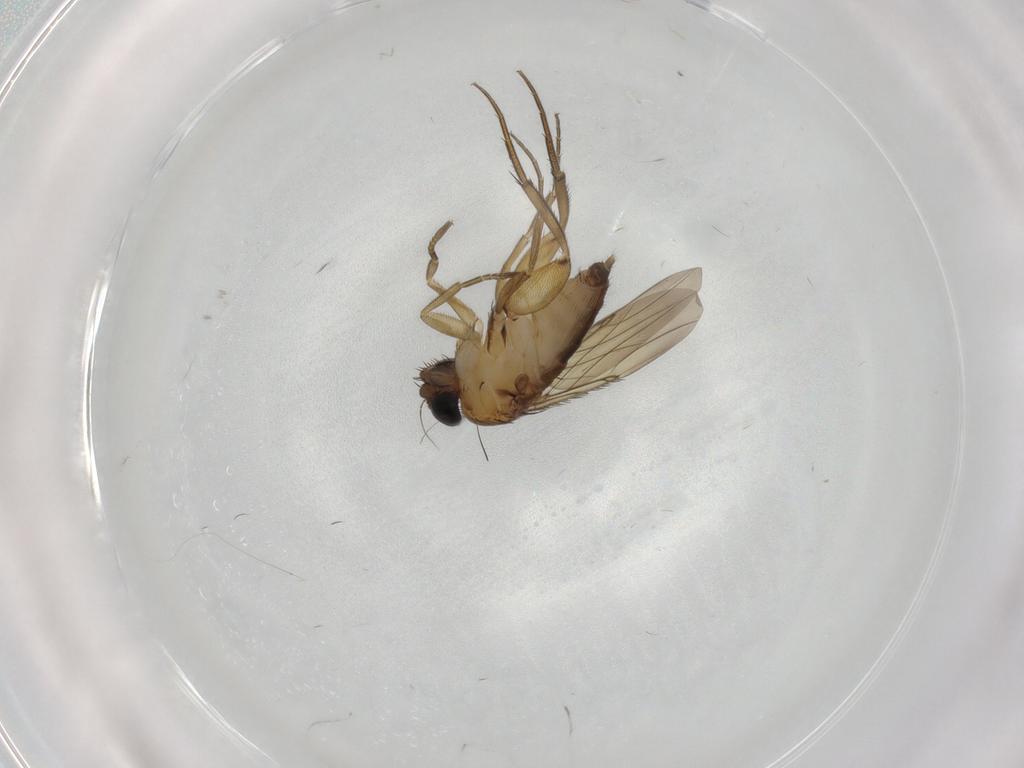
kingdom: Animalia
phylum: Arthropoda
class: Insecta
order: Diptera
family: Phoridae
